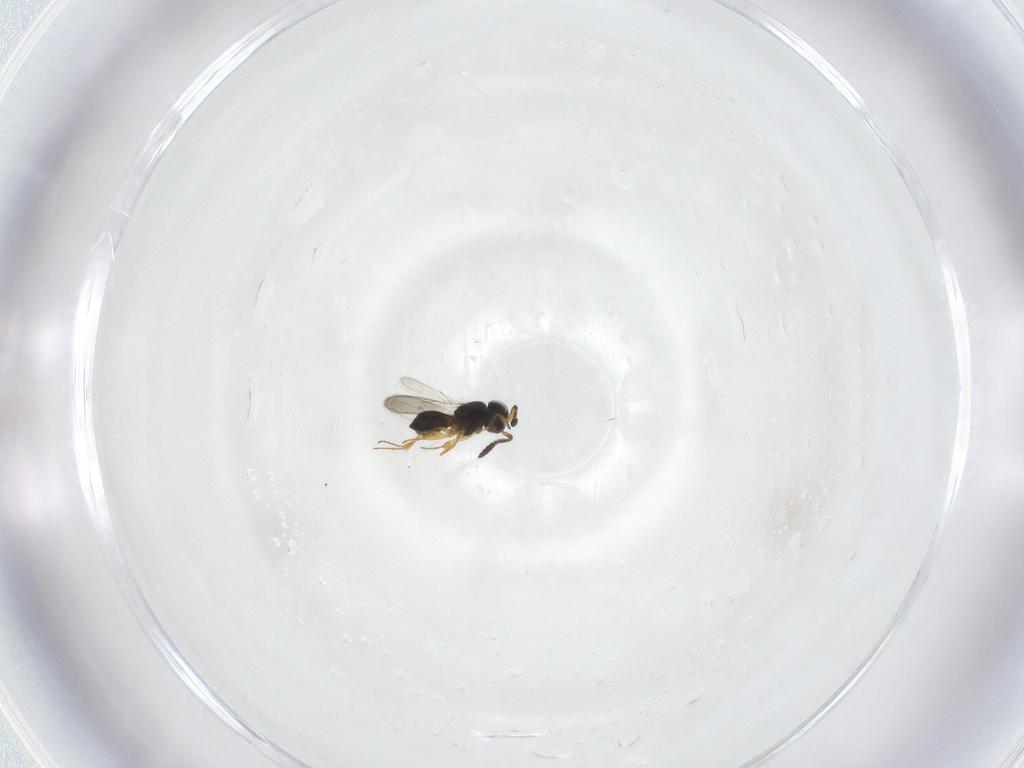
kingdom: Animalia
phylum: Arthropoda
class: Insecta
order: Hymenoptera
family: Scelionidae
